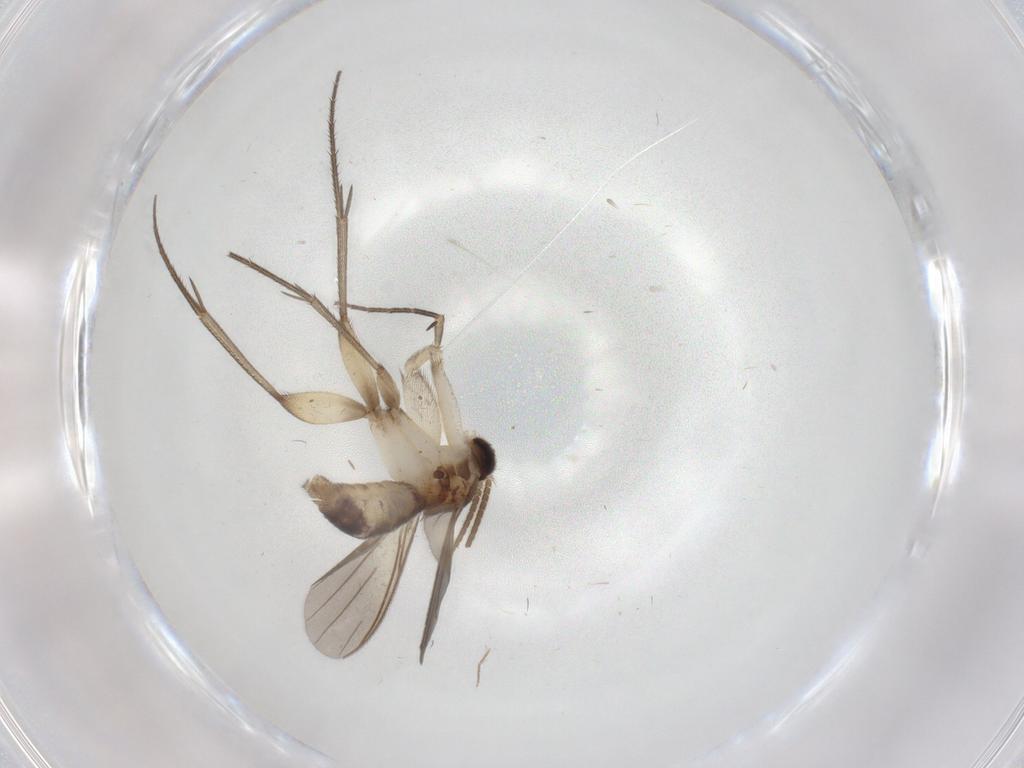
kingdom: Animalia
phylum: Arthropoda
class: Insecta
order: Diptera
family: Mycetophilidae
